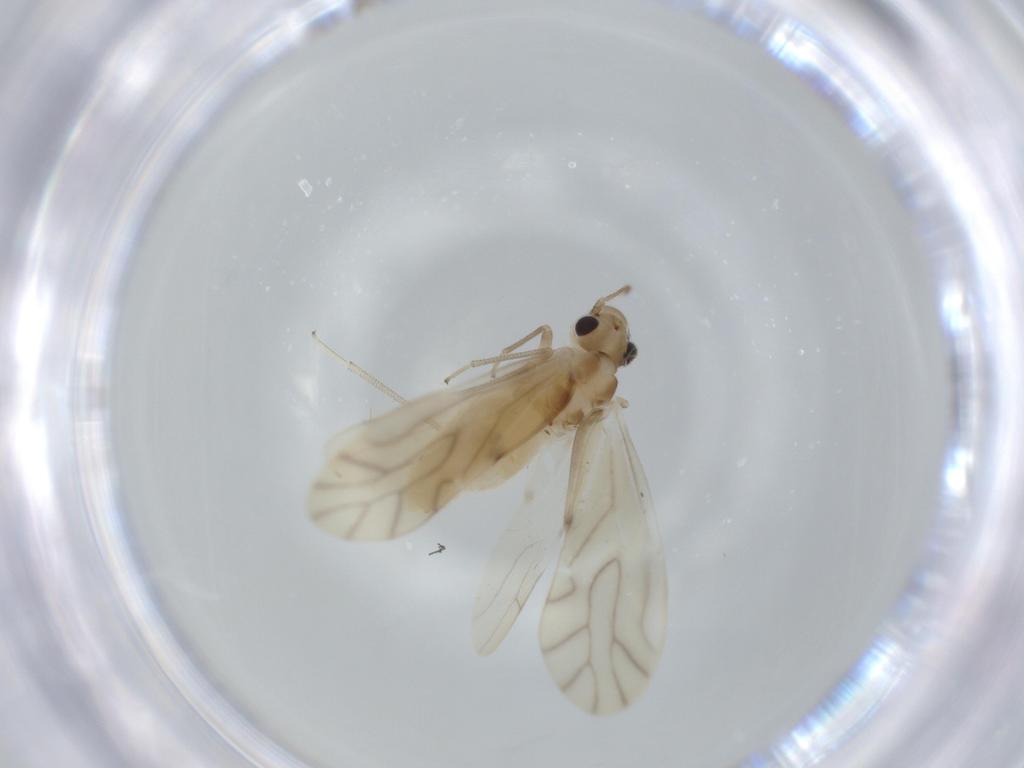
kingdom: Animalia
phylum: Arthropoda
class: Insecta
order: Psocodea
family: Caeciliusidae
